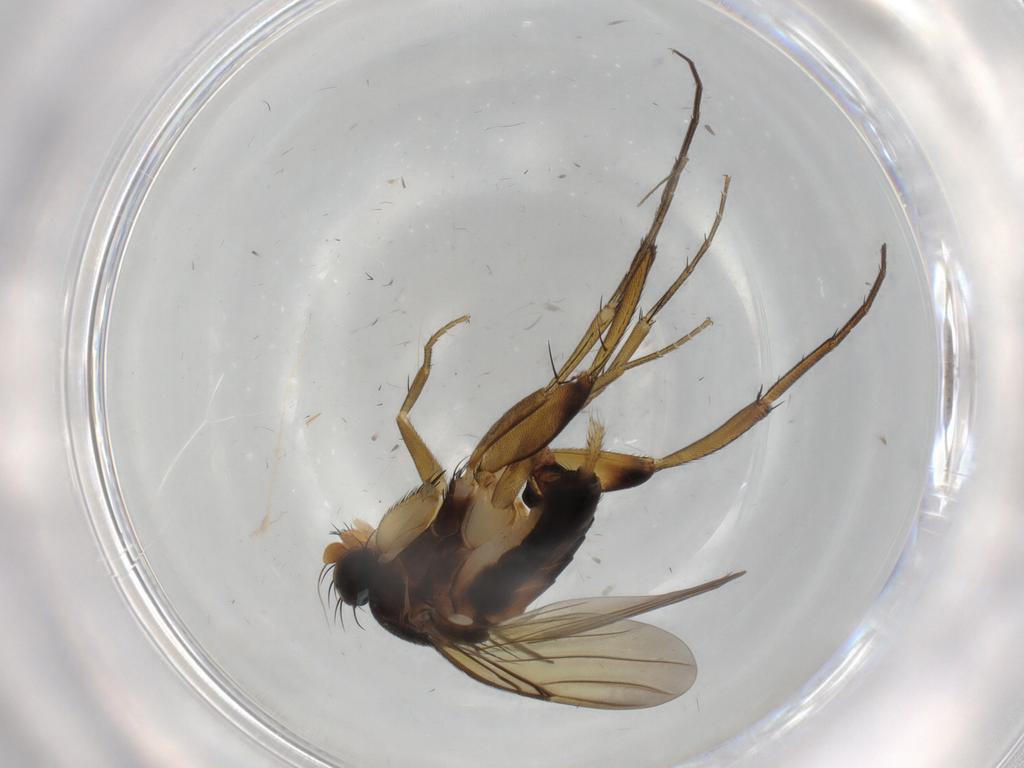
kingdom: Animalia
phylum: Arthropoda
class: Insecta
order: Diptera
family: Phoridae
